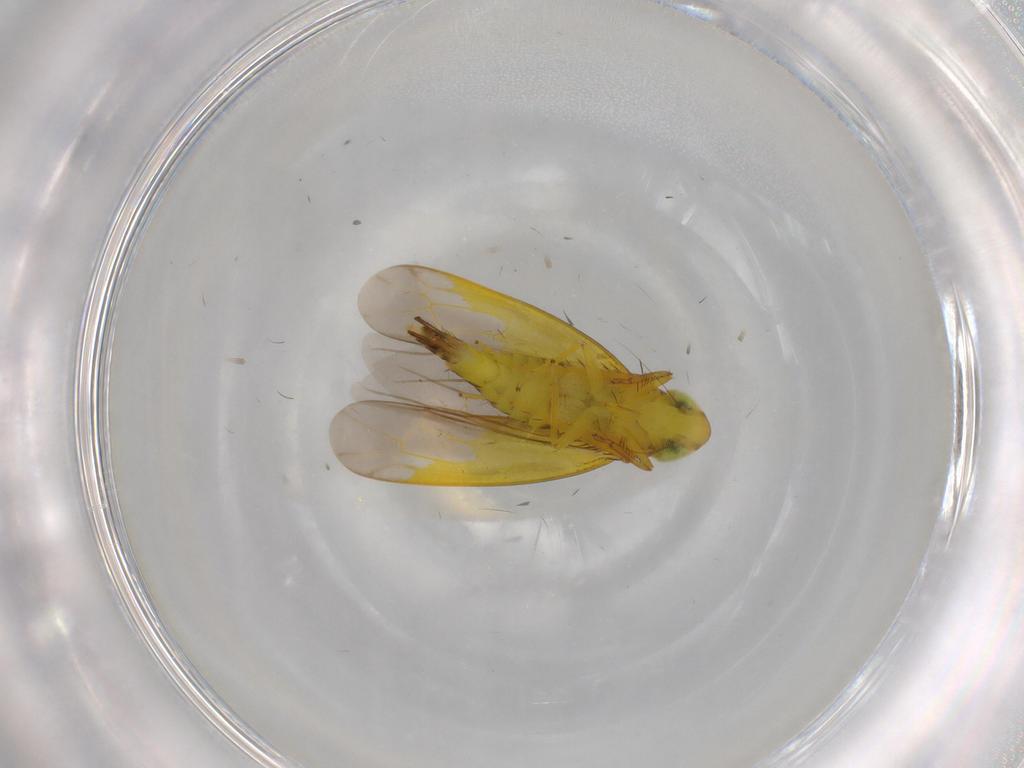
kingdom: Animalia
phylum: Arthropoda
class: Insecta
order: Hemiptera
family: Cicadellidae
